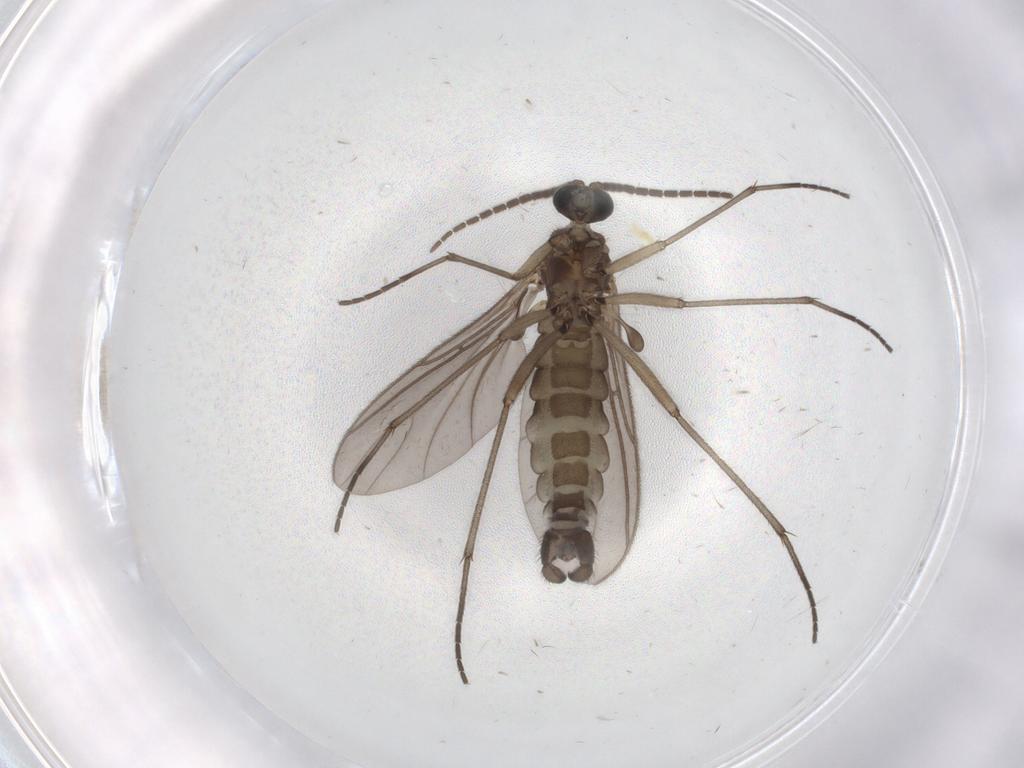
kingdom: Animalia
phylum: Arthropoda
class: Insecta
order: Diptera
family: Sciaridae
